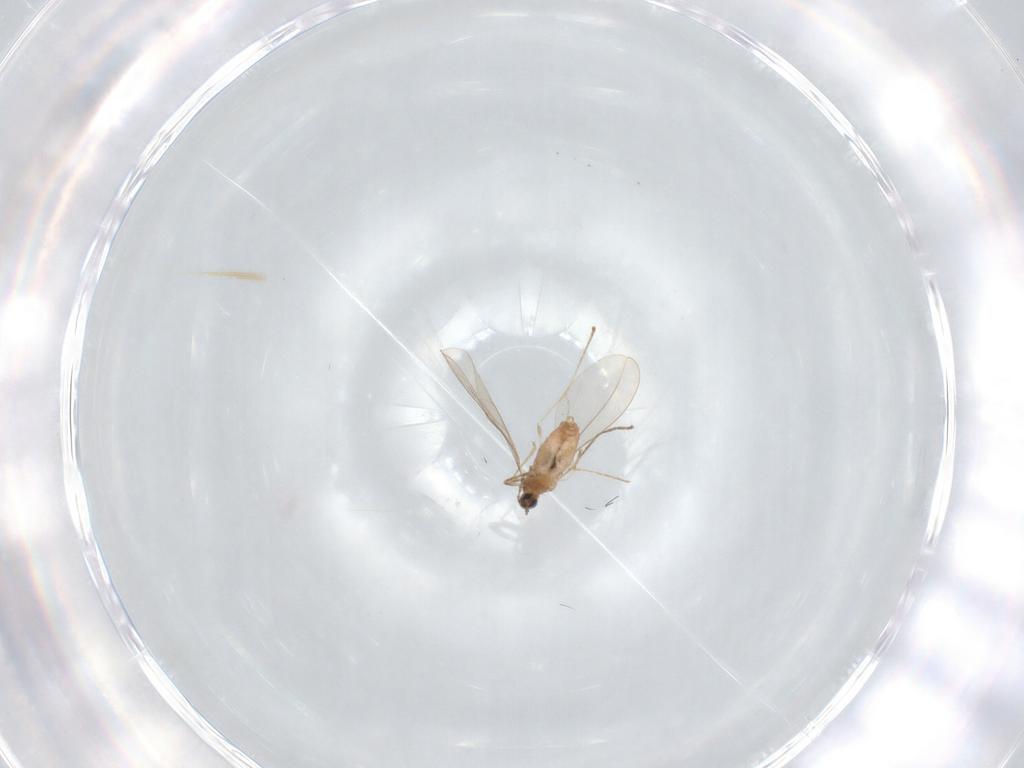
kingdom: Animalia
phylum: Arthropoda
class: Insecta
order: Diptera
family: Cecidomyiidae
